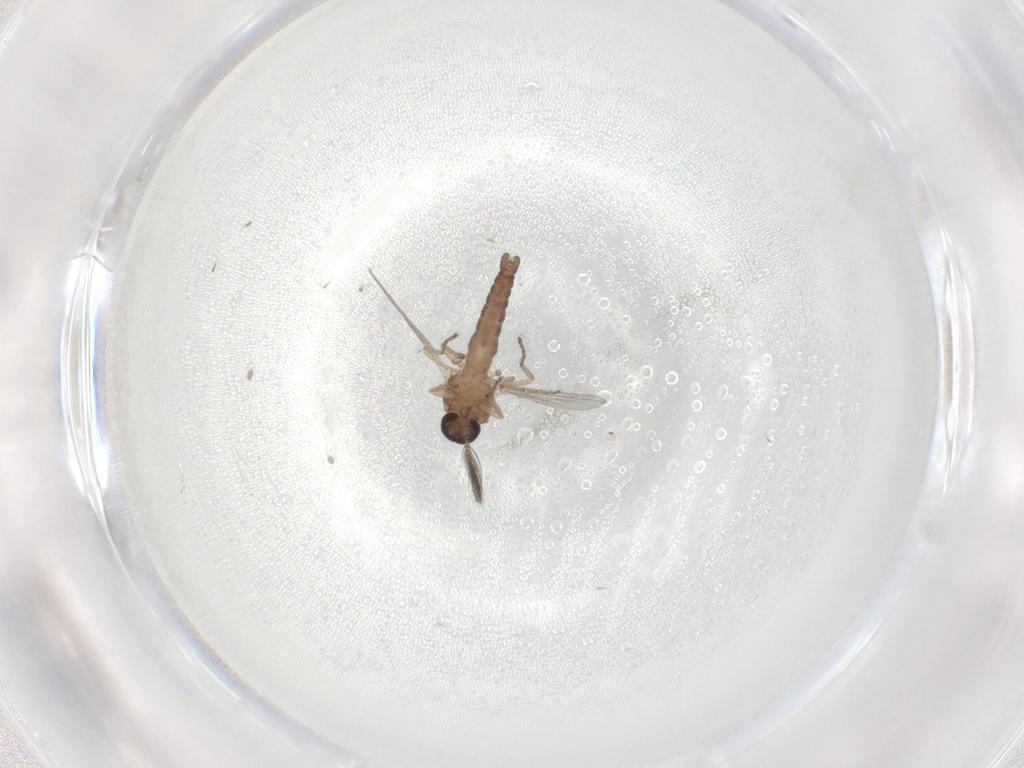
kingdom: Animalia
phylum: Arthropoda
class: Insecta
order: Diptera
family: Ceratopogonidae
